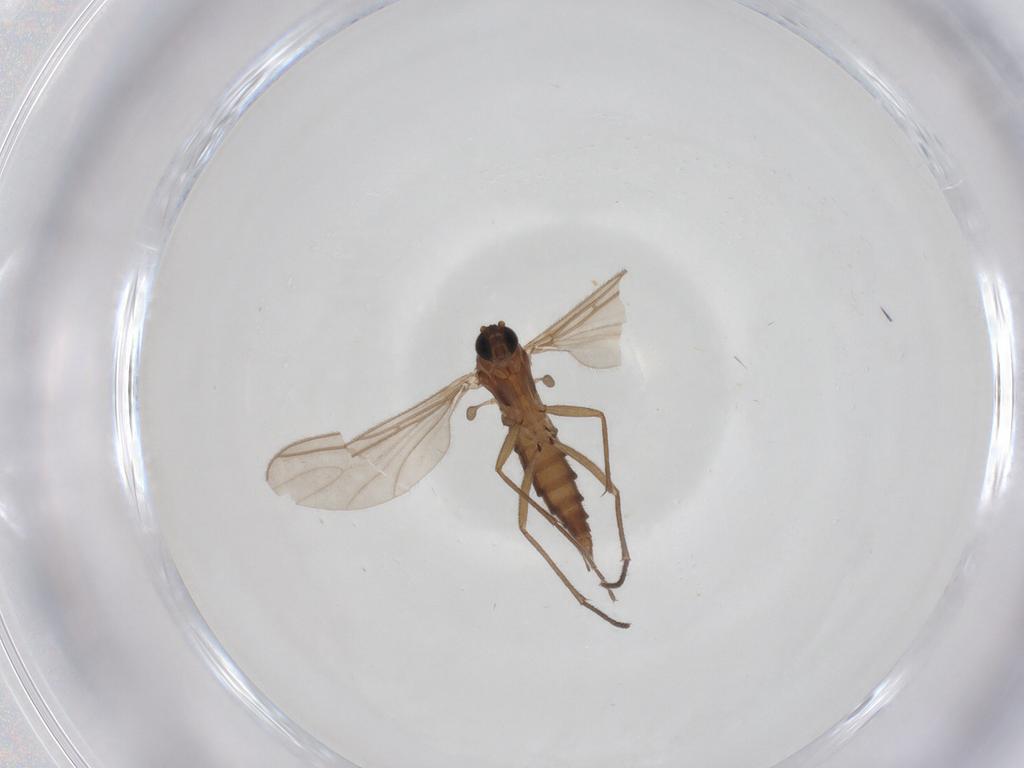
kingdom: Animalia
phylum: Arthropoda
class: Insecta
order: Diptera
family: Sciaridae
